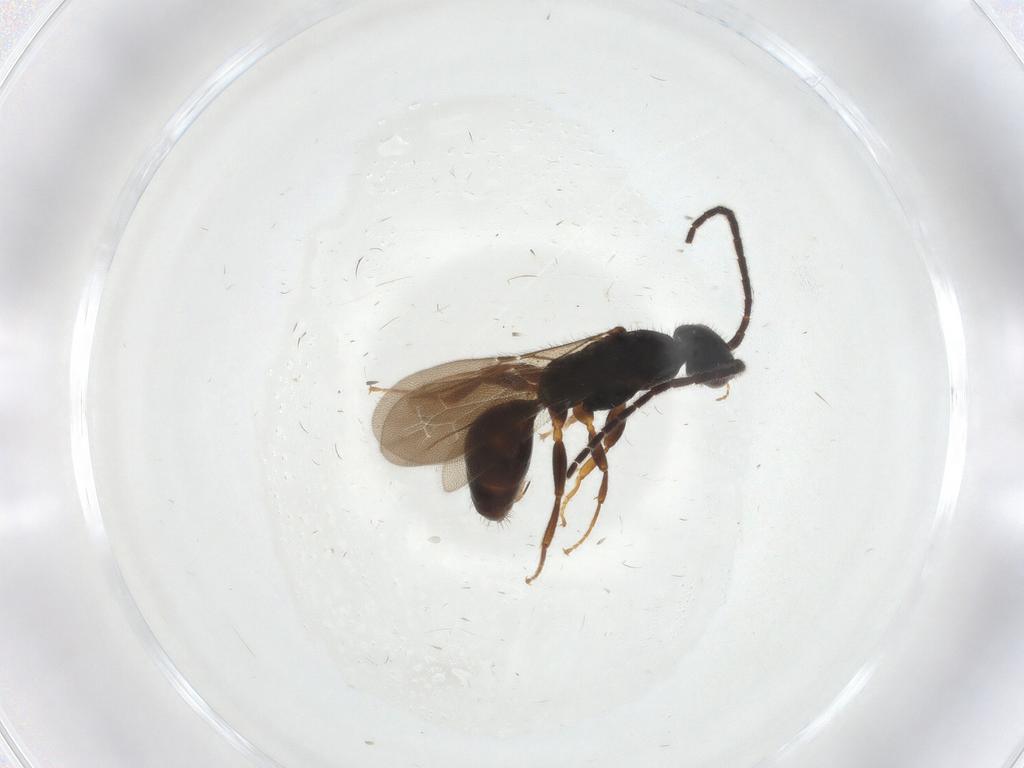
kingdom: Animalia
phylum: Arthropoda
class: Insecta
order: Hymenoptera
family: Bethylidae
